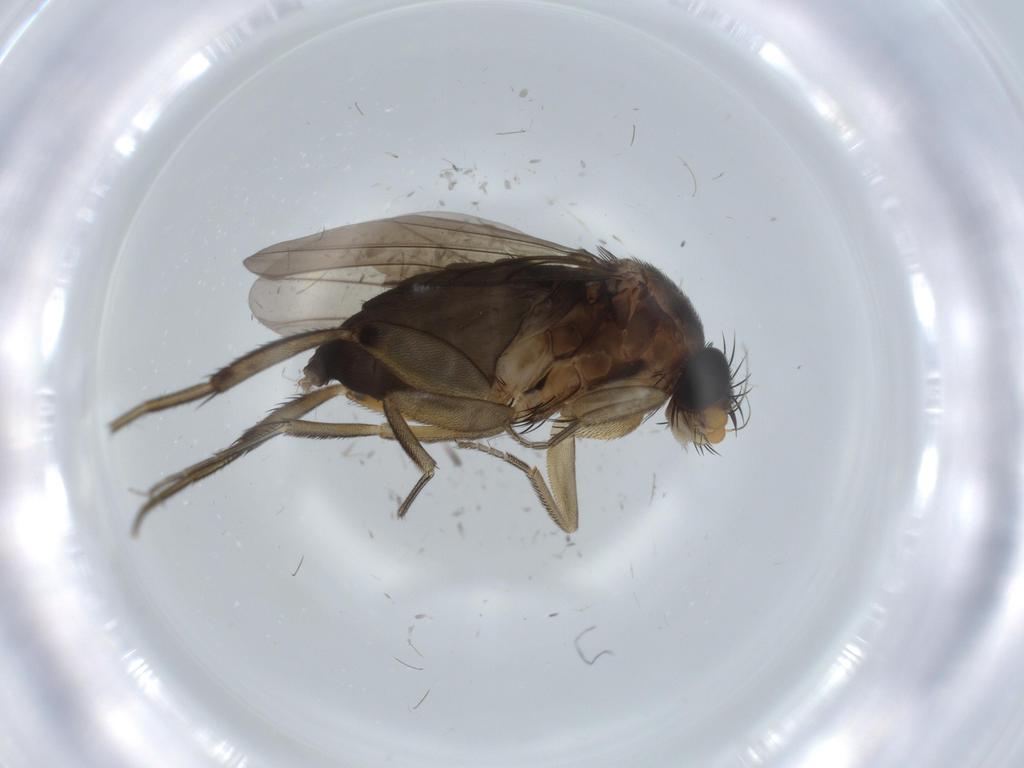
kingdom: Animalia
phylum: Arthropoda
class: Insecta
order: Diptera
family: Phoridae
